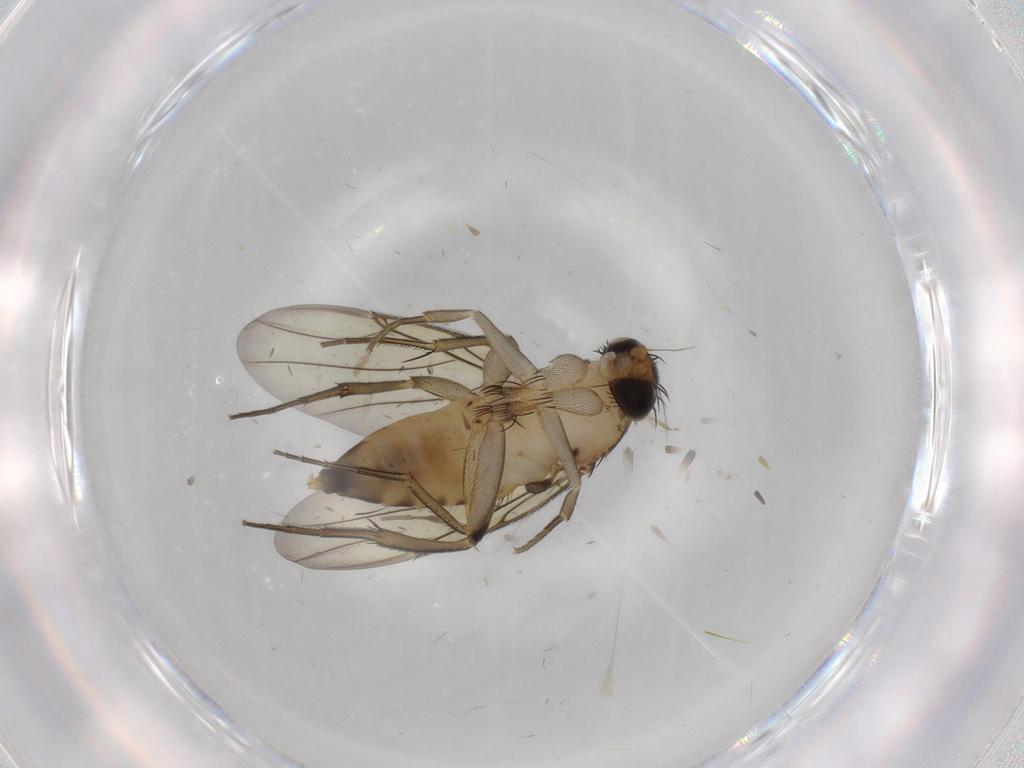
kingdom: Animalia
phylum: Arthropoda
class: Insecta
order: Diptera
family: Phoridae
